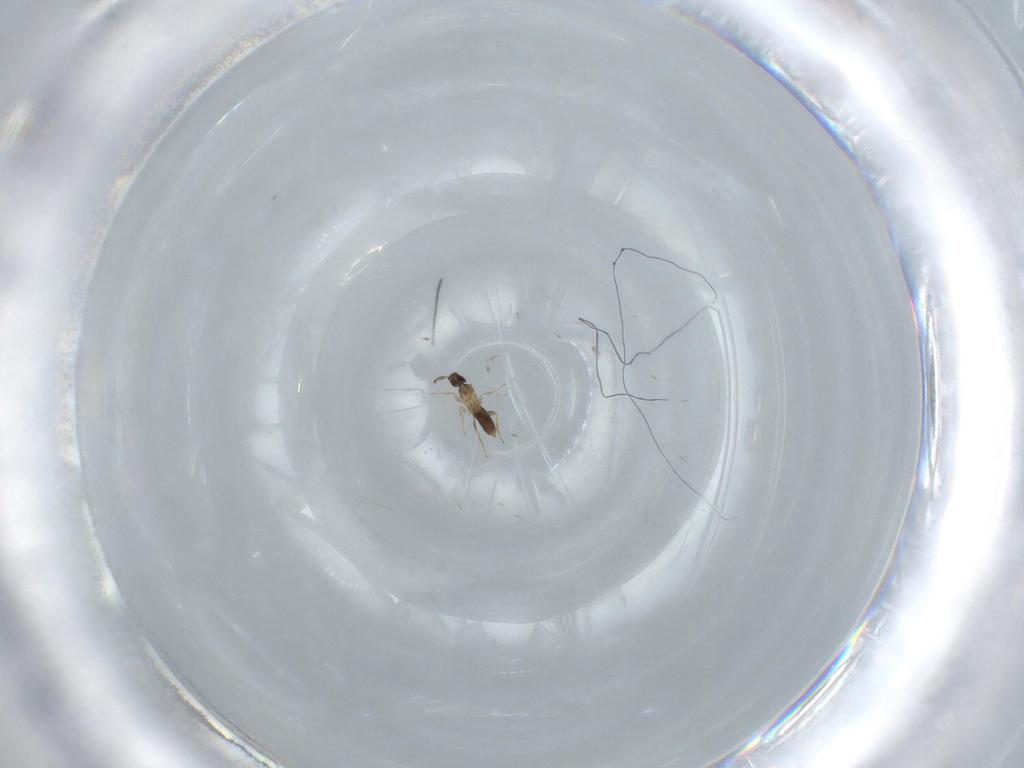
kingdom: Animalia
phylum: Arthropoda
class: Insecta
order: Hymenoptera
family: Mymaridae
